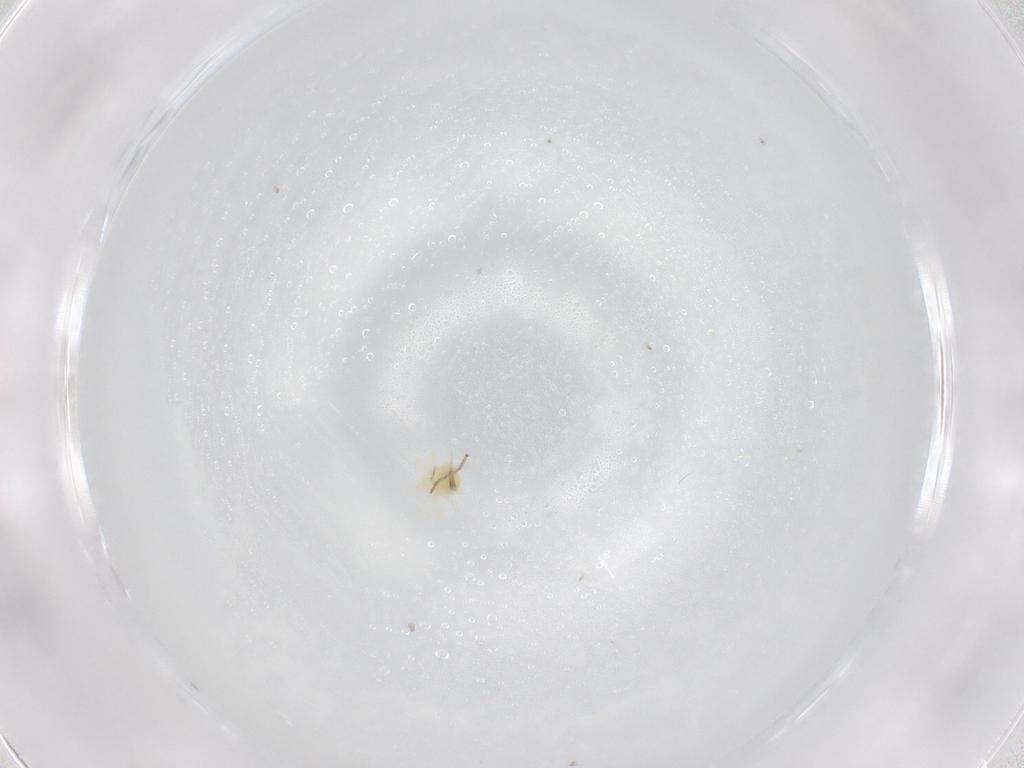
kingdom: Animalia
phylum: Arthropoda
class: Arachnida
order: Trombidiformes
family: Anystidae
